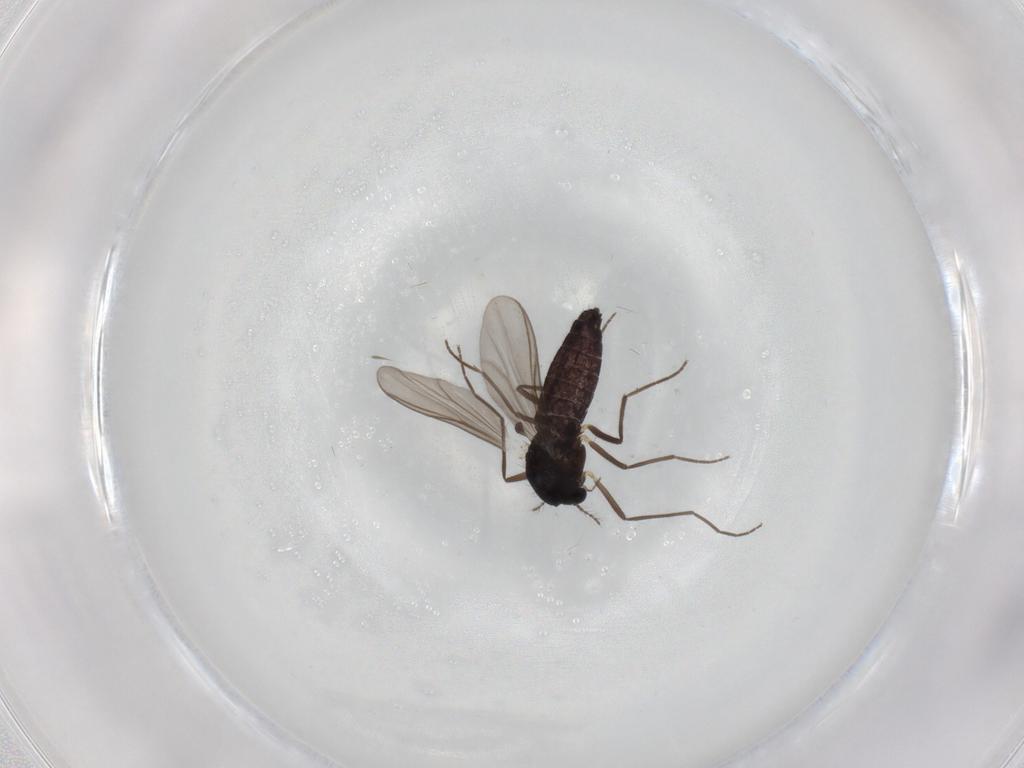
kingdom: Animalia
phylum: Arthropoda
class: Insecta
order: Diptera
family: Chironomidae
